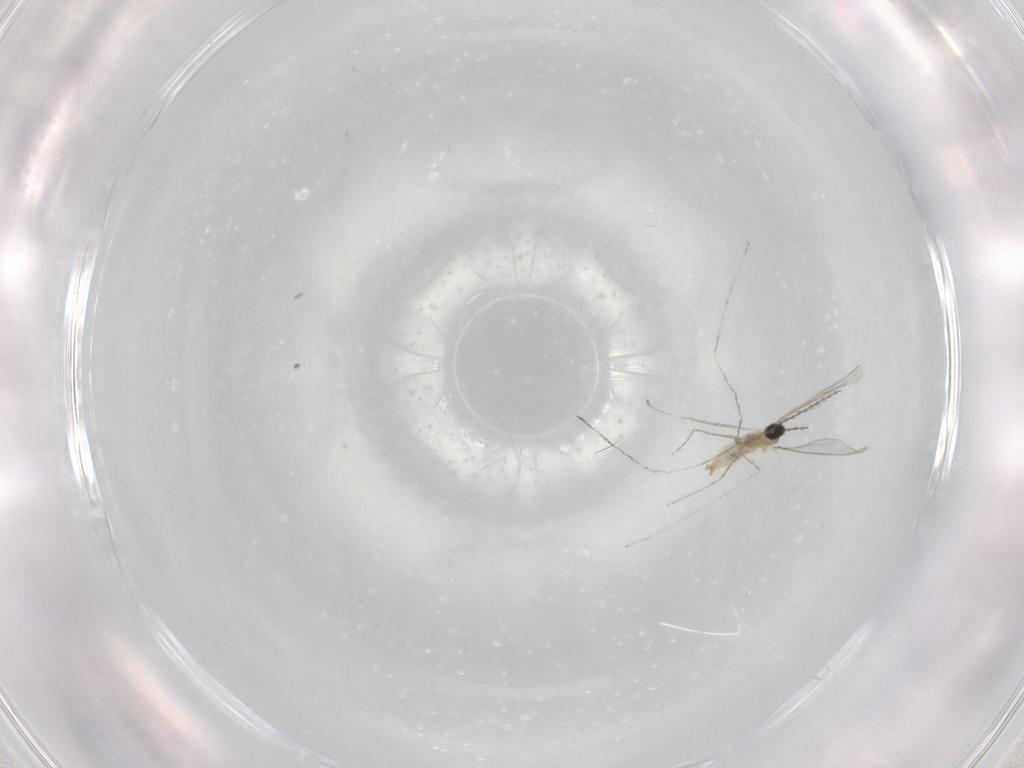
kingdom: Animalia
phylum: Arthropoda
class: Insecta
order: Diptera
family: Cecidomyiidae
